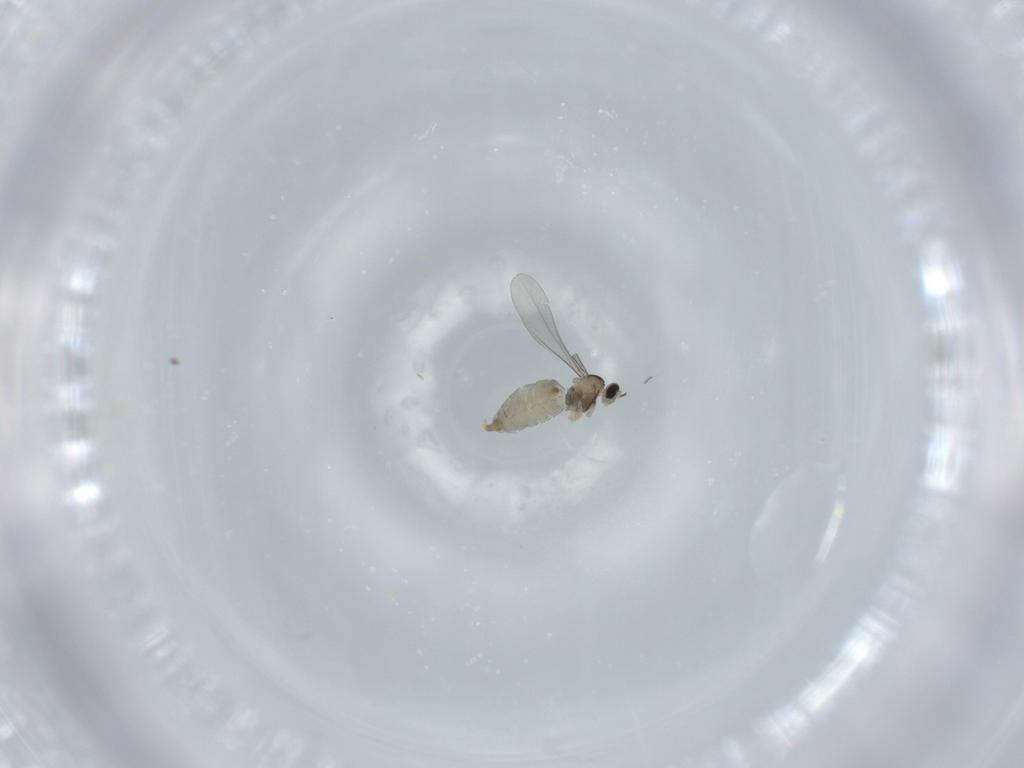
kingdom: Animalia
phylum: Arthropoda
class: Insecta
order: Diptera
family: Cecidomyiidae
